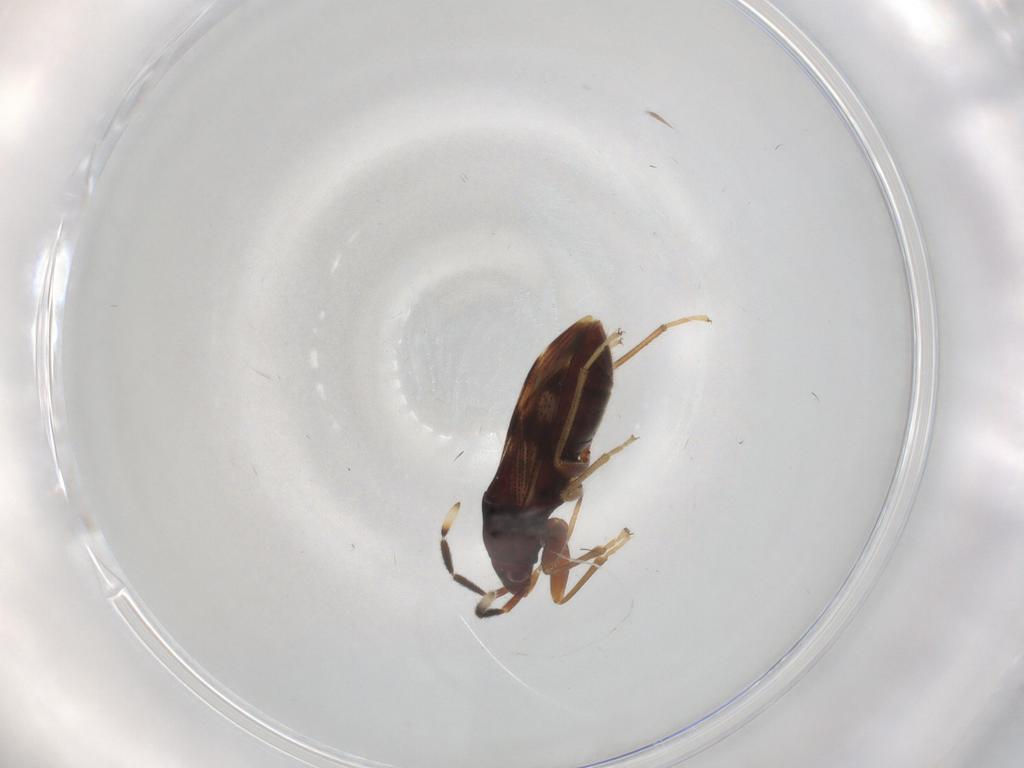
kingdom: Animalia
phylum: Arthropoda
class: Insecta
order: Hemiptera
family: Rhyparochromidae
